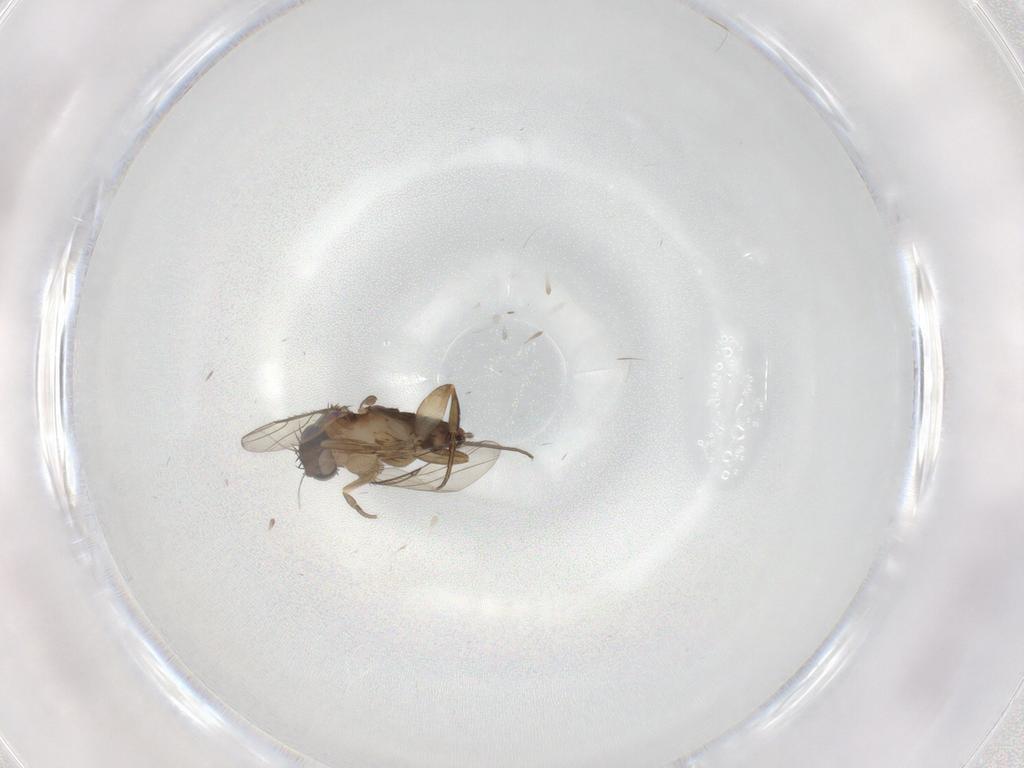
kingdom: Animalia
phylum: Arthropoda
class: Insecta
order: Diptera
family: Phoridae
